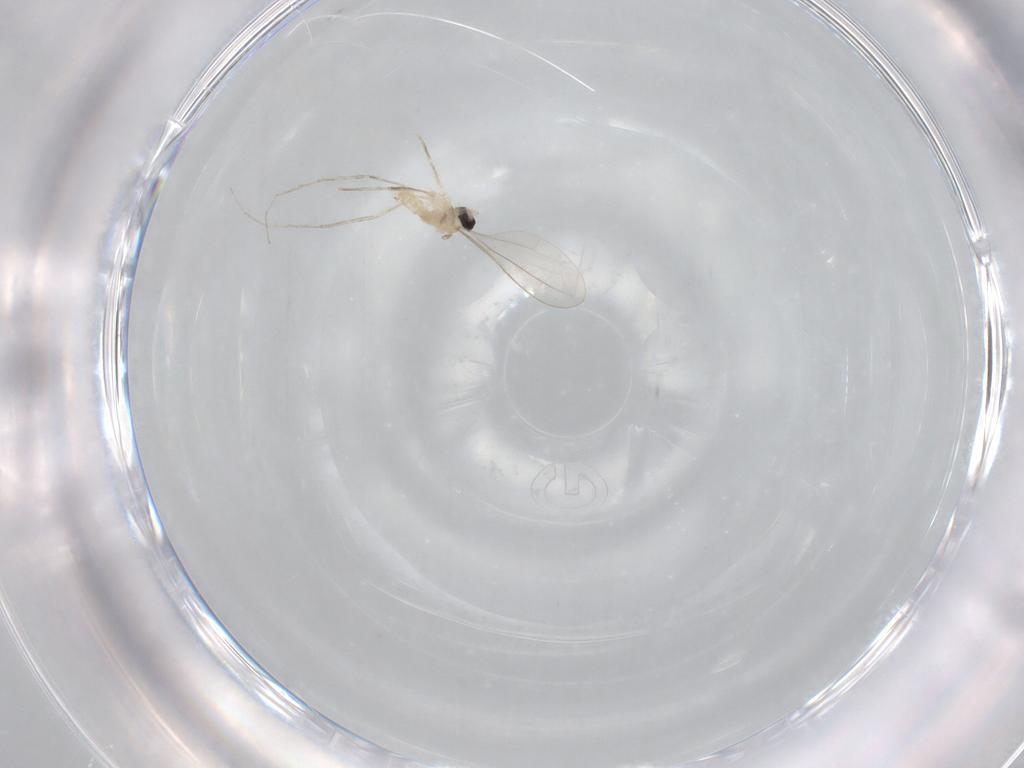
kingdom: Animalia
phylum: Arthropoda
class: Insecta
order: Diptera
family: Cecidomyiidae
